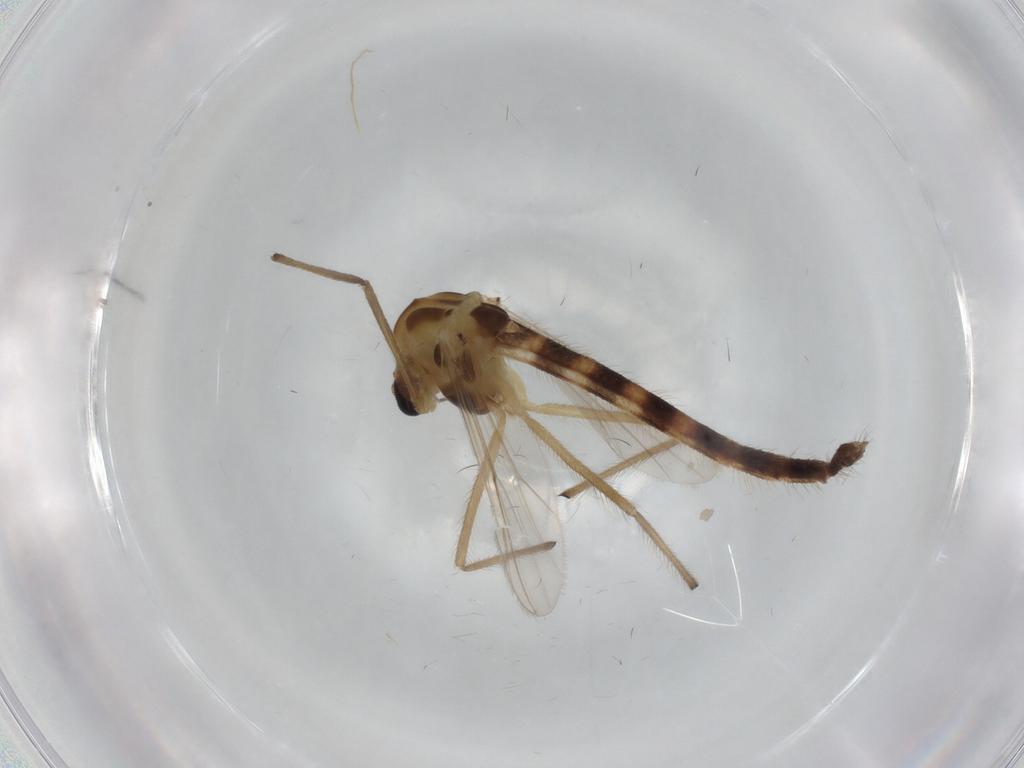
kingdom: Animalia
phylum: Arthropoda
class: Insecta
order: Diptera
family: Chironomidae
